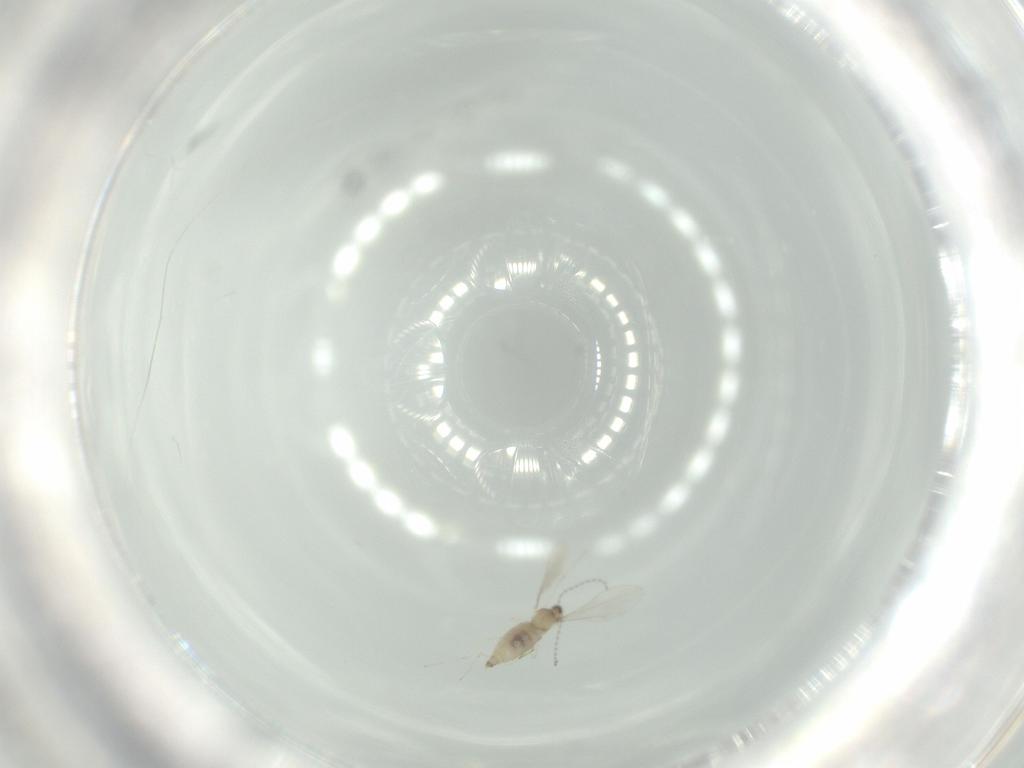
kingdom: Animalia
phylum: Arthropoda
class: Insecta
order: Diptera
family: Cecidomyiidae
